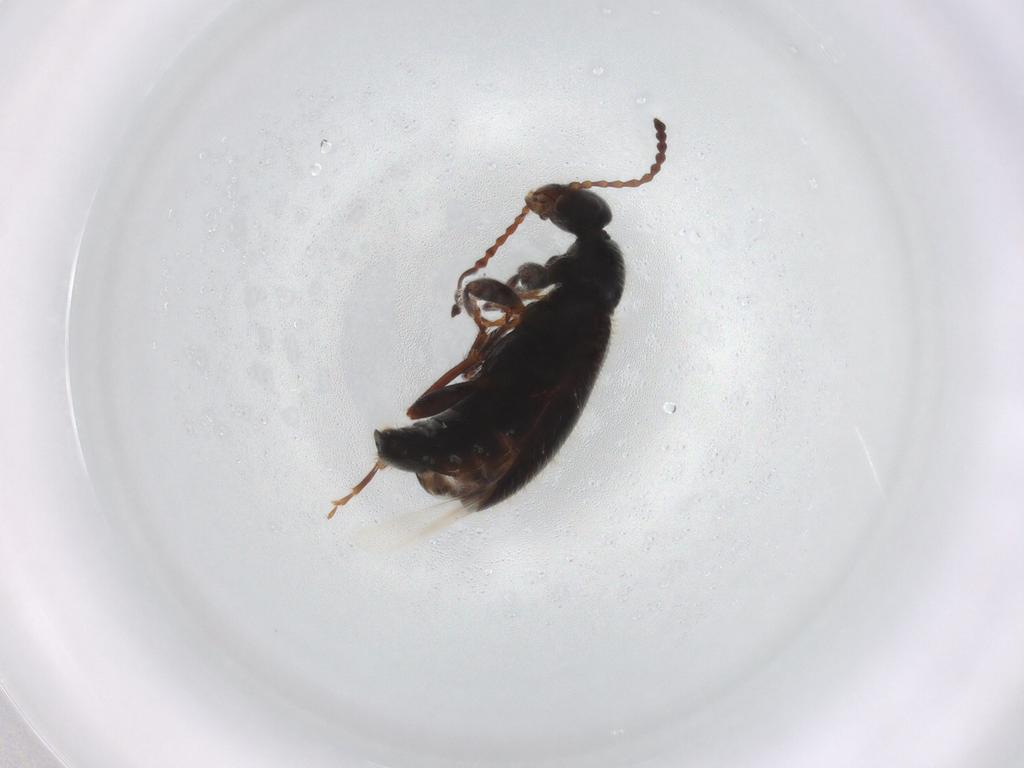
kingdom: Animalia
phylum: Arthropoda
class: Insecta
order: Coleoptera
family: Anthicidae
